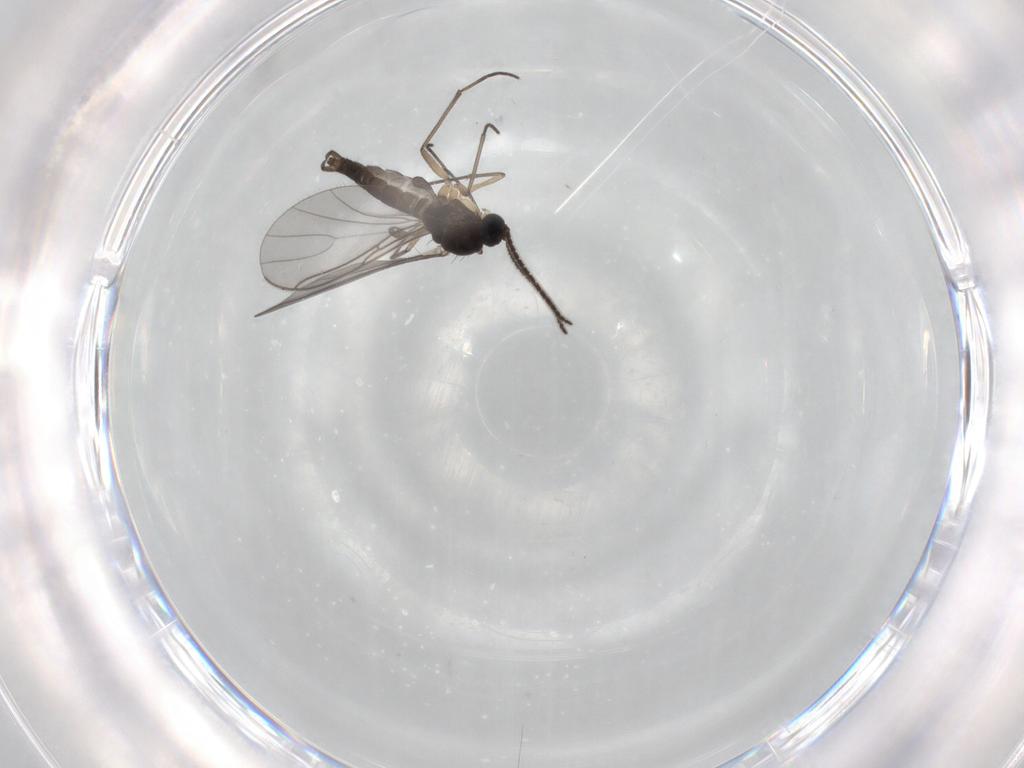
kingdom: Animalia
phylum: Arthropoda
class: Insecta
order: Diptera
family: Sciaridae
